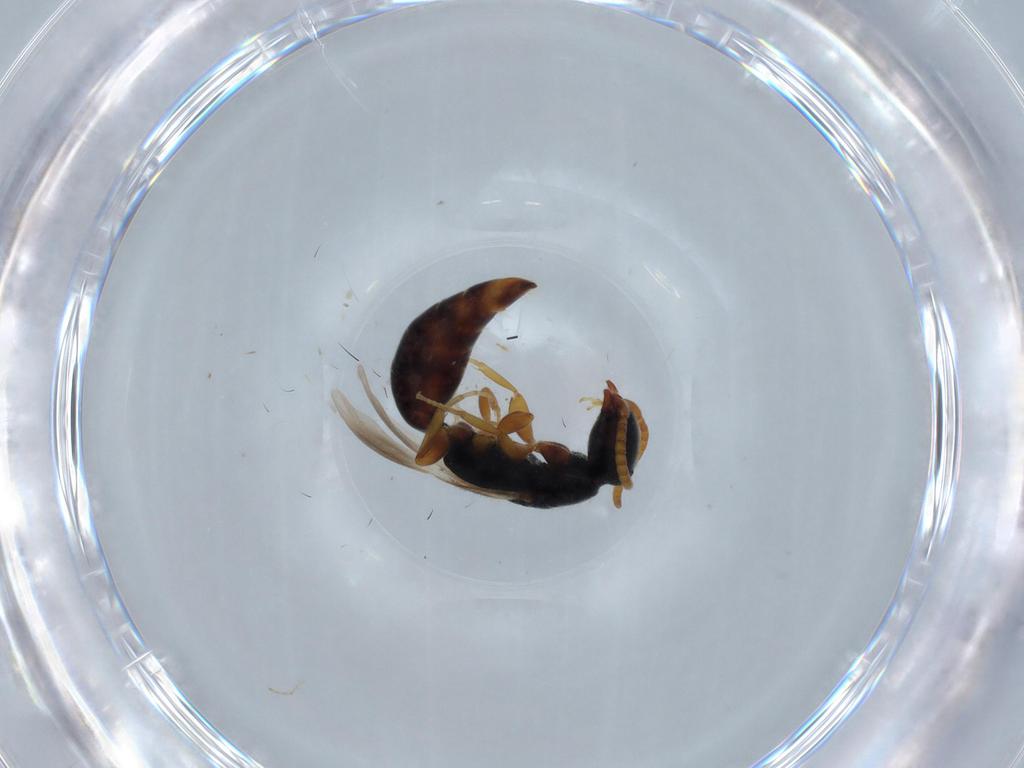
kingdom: Animalia
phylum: Arthropoda
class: Insecta
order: Hymenoptera
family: Bethylidae
